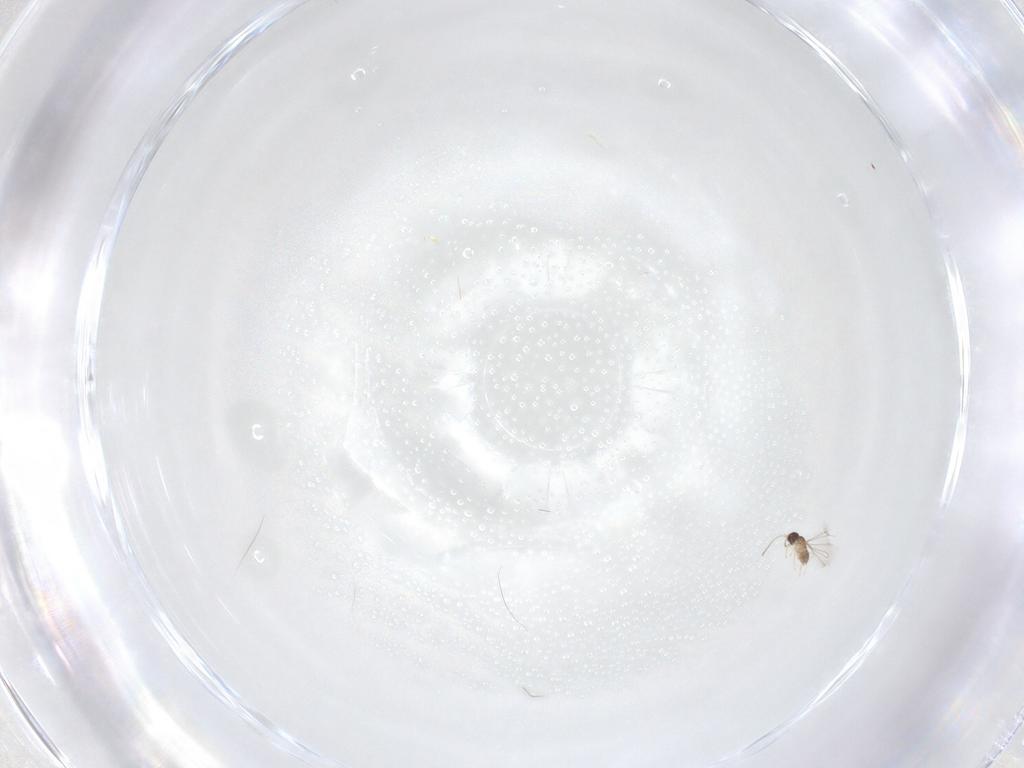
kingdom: Animalia
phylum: Arthropoda
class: Insecta
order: Diptera
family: Cecidomyiidae
